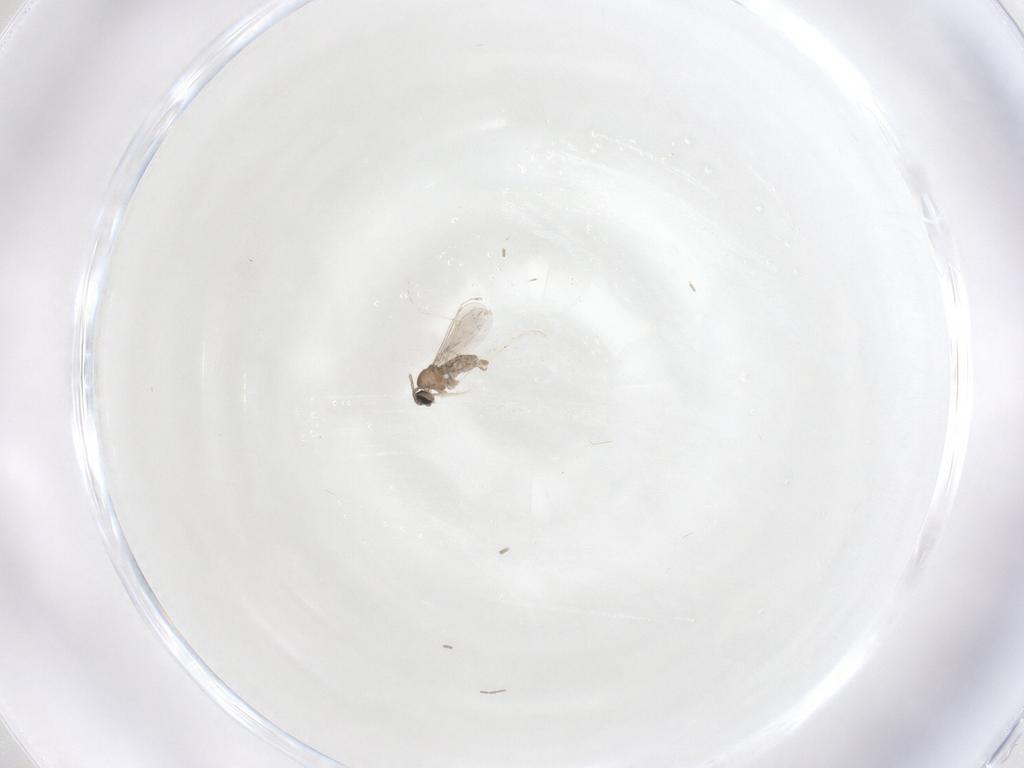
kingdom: Animalia
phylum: Arthropoda
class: Insecta
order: Diptera
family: Cecidomyiidae
